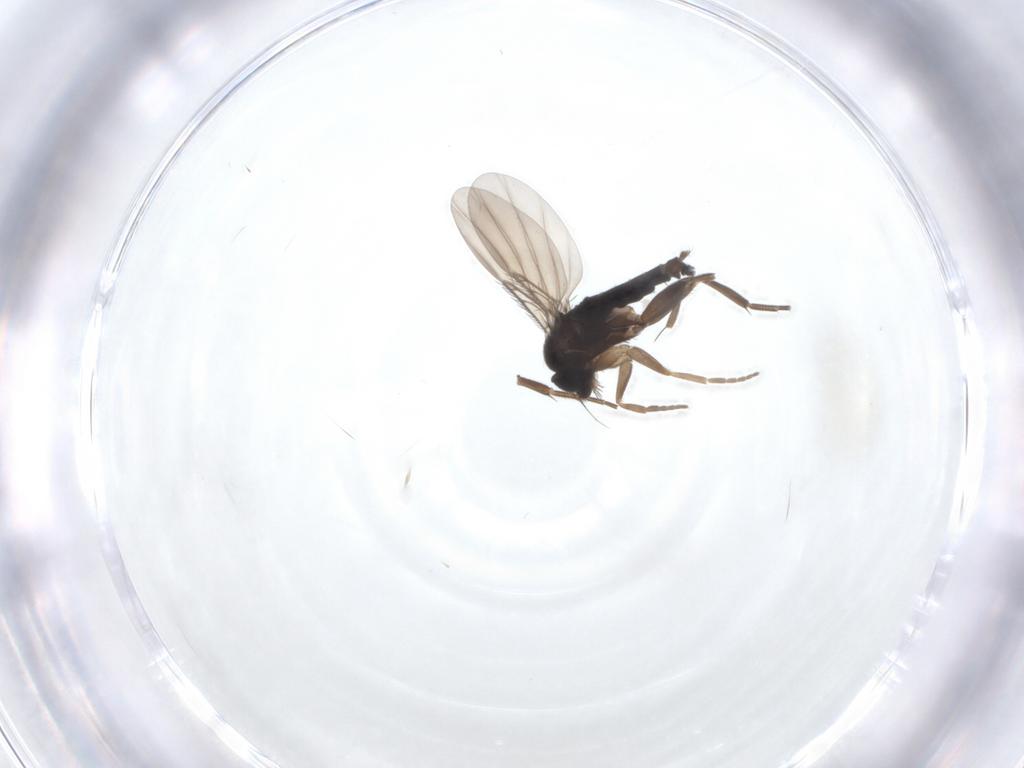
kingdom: Animalia
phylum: Arthropoda
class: Insecta
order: Diptera
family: Phoridae
